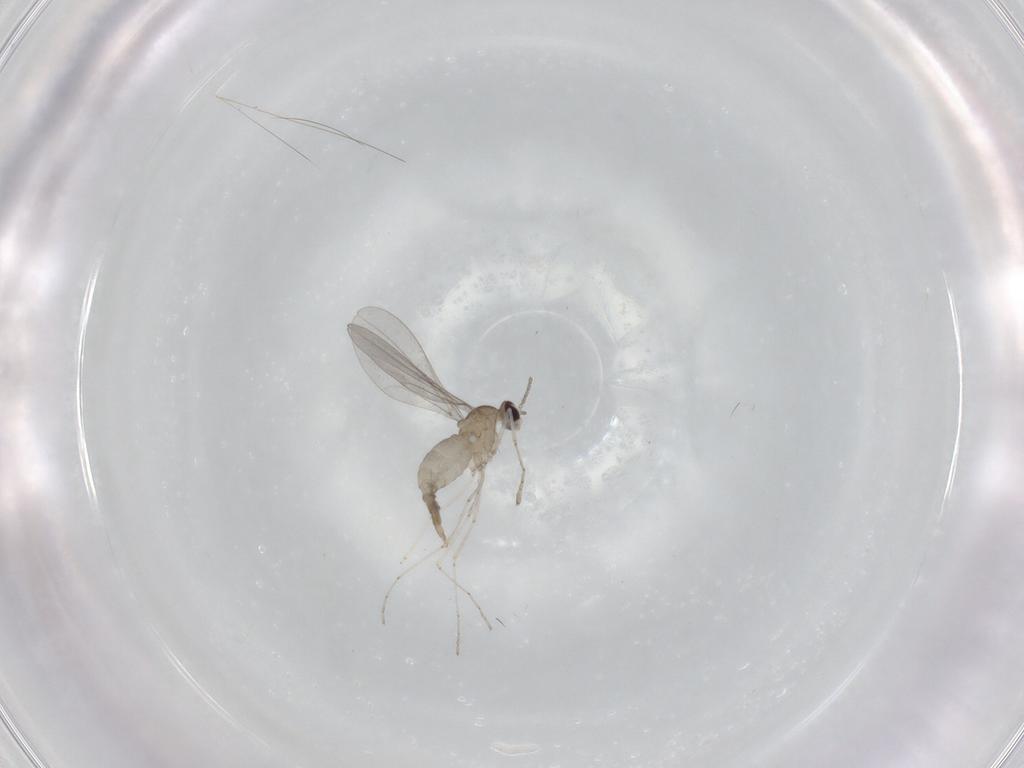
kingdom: Animalia
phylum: Arthropoda
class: Insecta
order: Diptera
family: Cecidomyiidae
